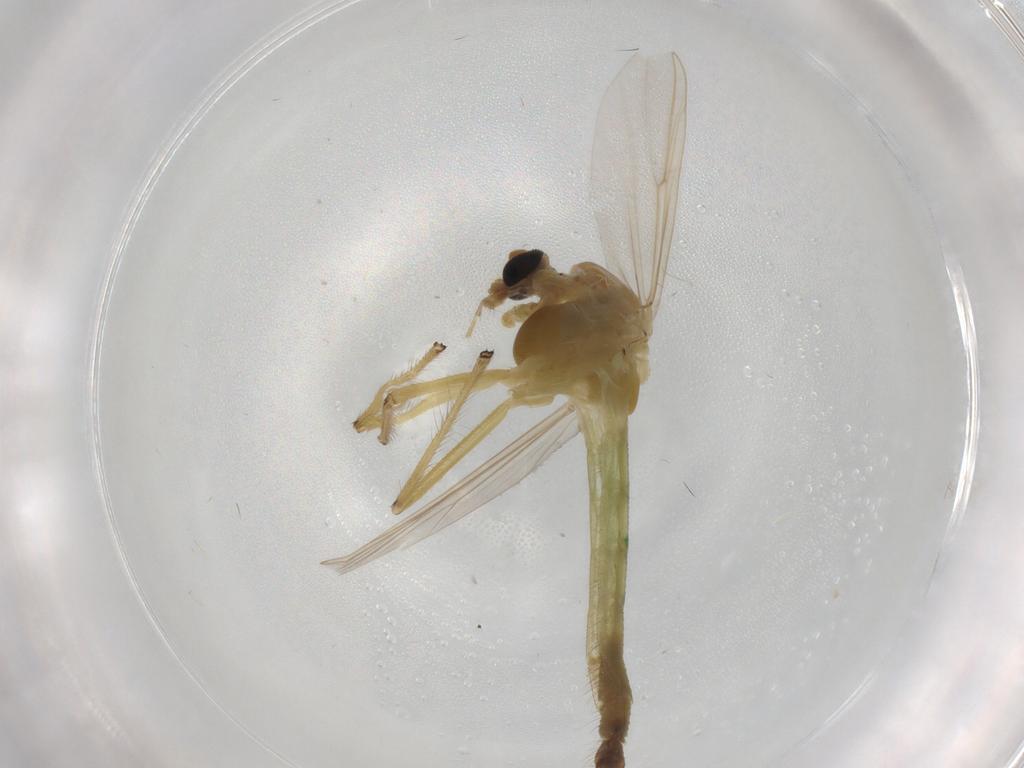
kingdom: Animalia
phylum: Arthropoda
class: Insecta
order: Diptera
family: Chironomidae
